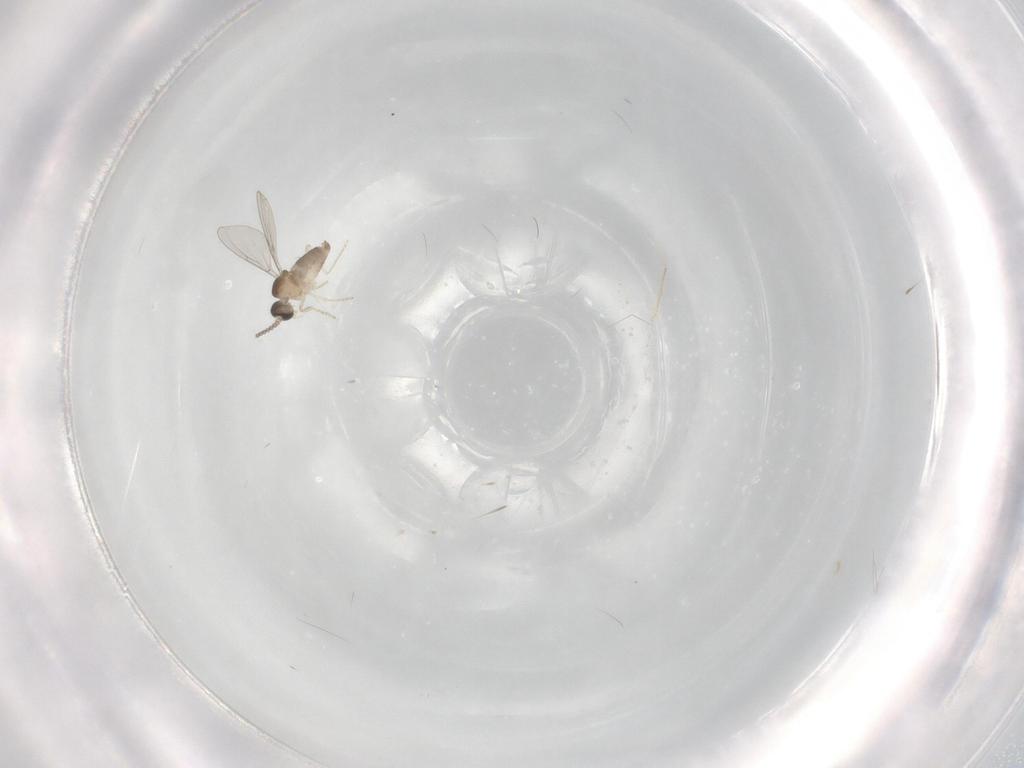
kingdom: Animalia
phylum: Arthropoda
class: Insecta
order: Diptera
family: Cecidomyiidae
